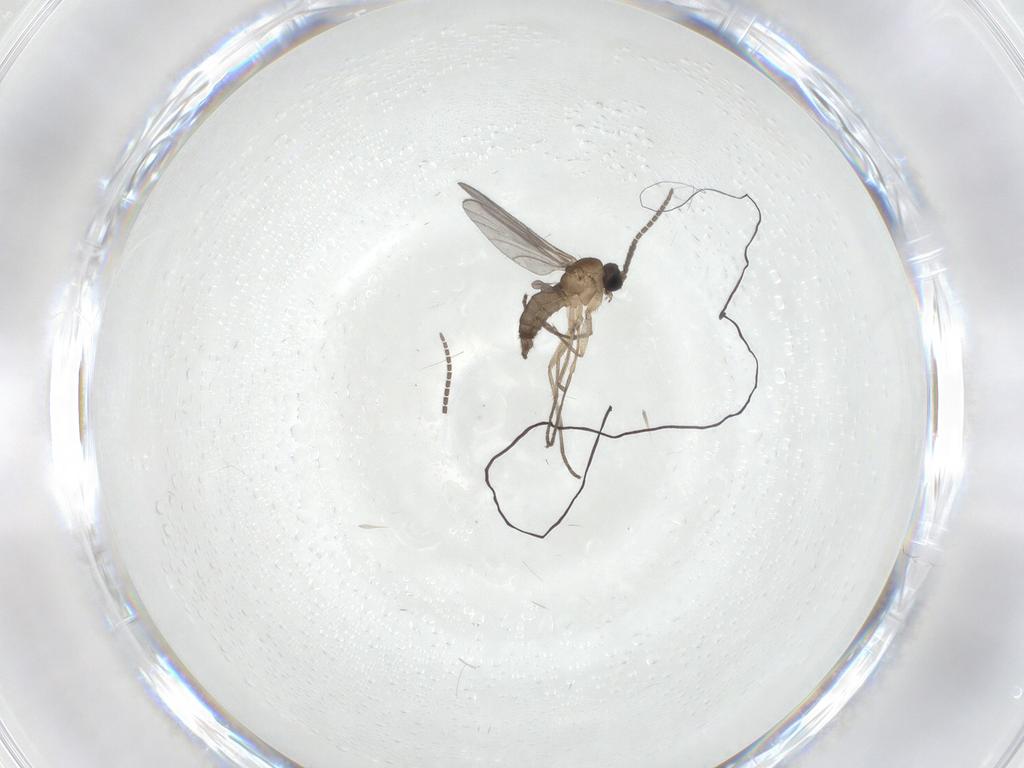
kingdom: Animalia
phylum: Arthropoda
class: Insecta
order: Diptera
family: Sciaridae
